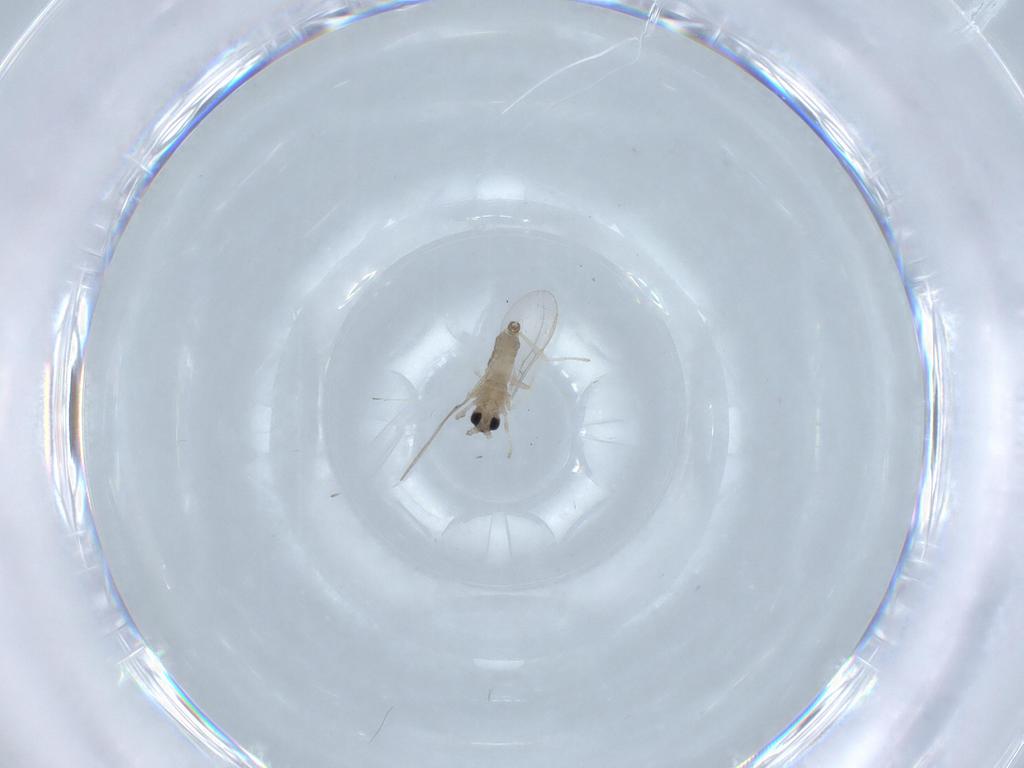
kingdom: Animalia
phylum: Arthropoda
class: Insecta
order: Diptera
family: Cecidomyiidae
